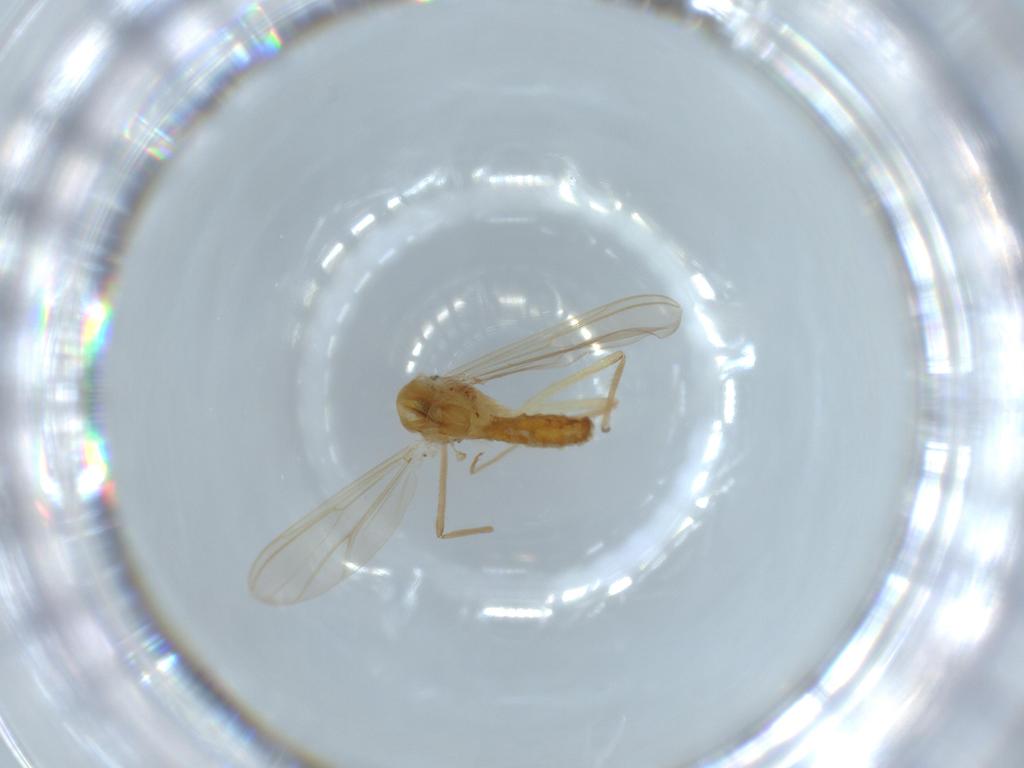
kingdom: Animalia
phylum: Arthropoda
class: Insecta
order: Diptera
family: Chironomidae
